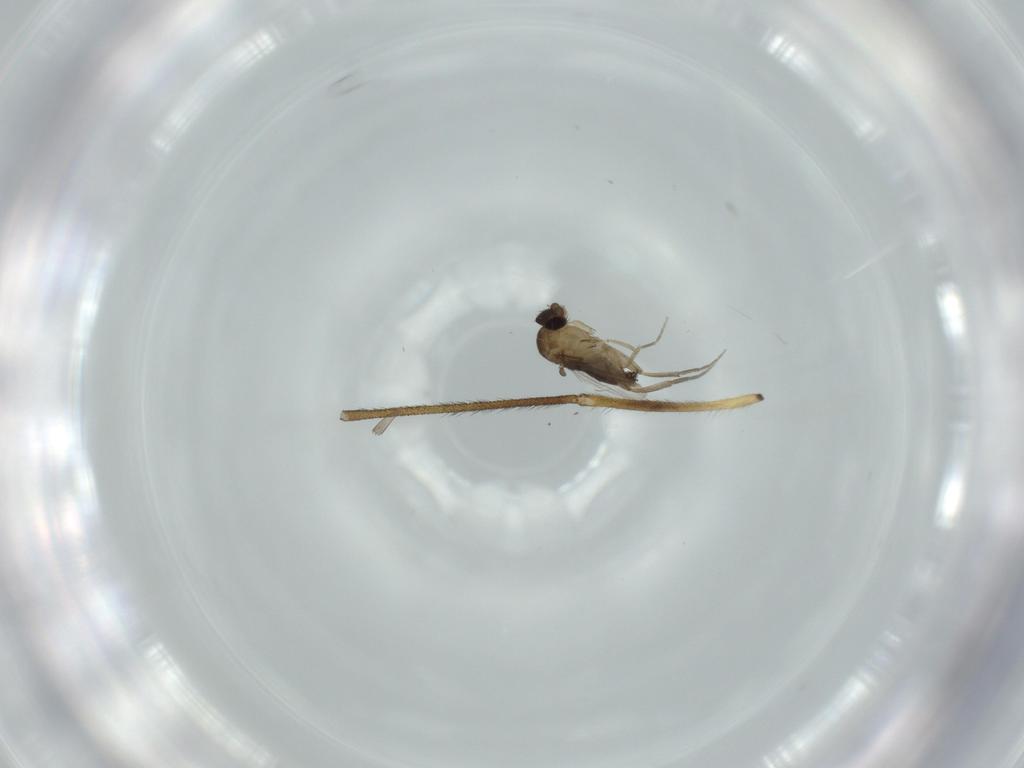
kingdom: Animalia
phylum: Arthropoda
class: Insecta
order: Diptera
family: Phoridae
